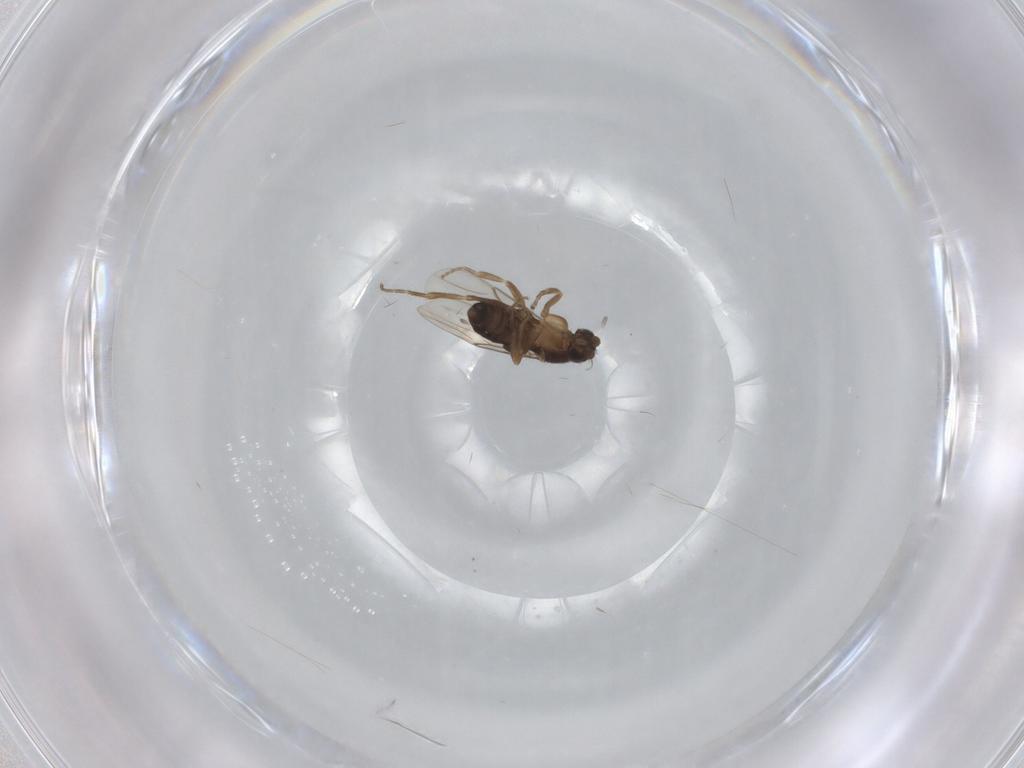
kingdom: Animalia
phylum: Arthropoda
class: Insecta
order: Diptera
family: Phoridae
